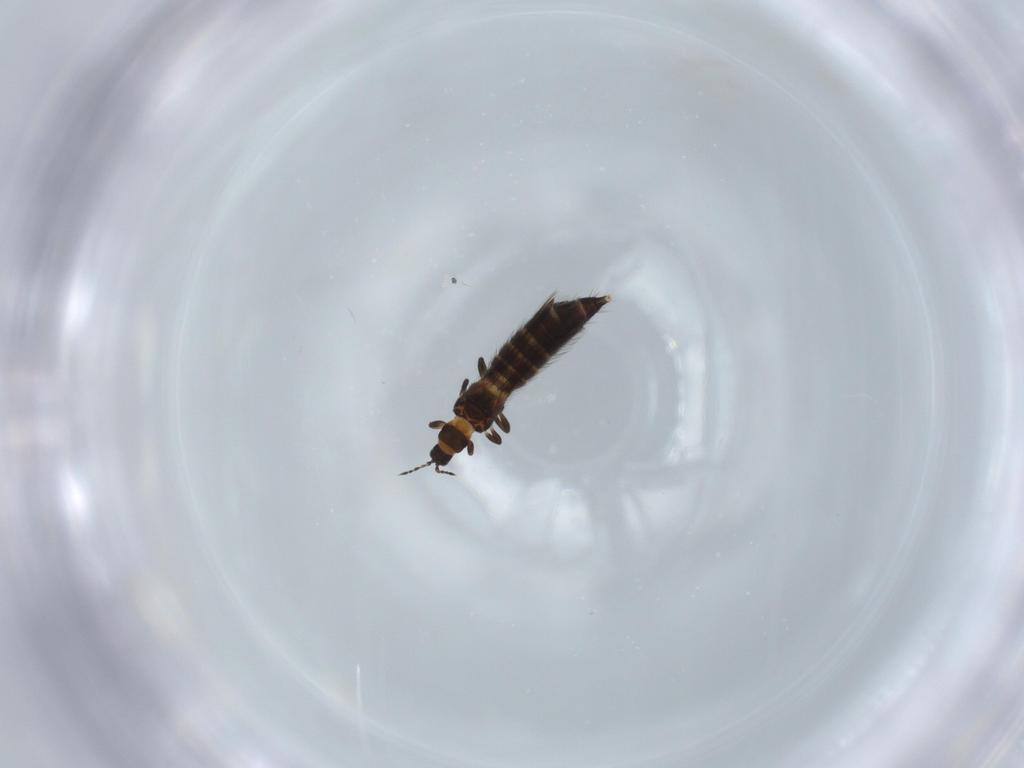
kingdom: Animalia
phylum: Arthropoda
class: Insecta
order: Thysanoptera
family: Thripidae
